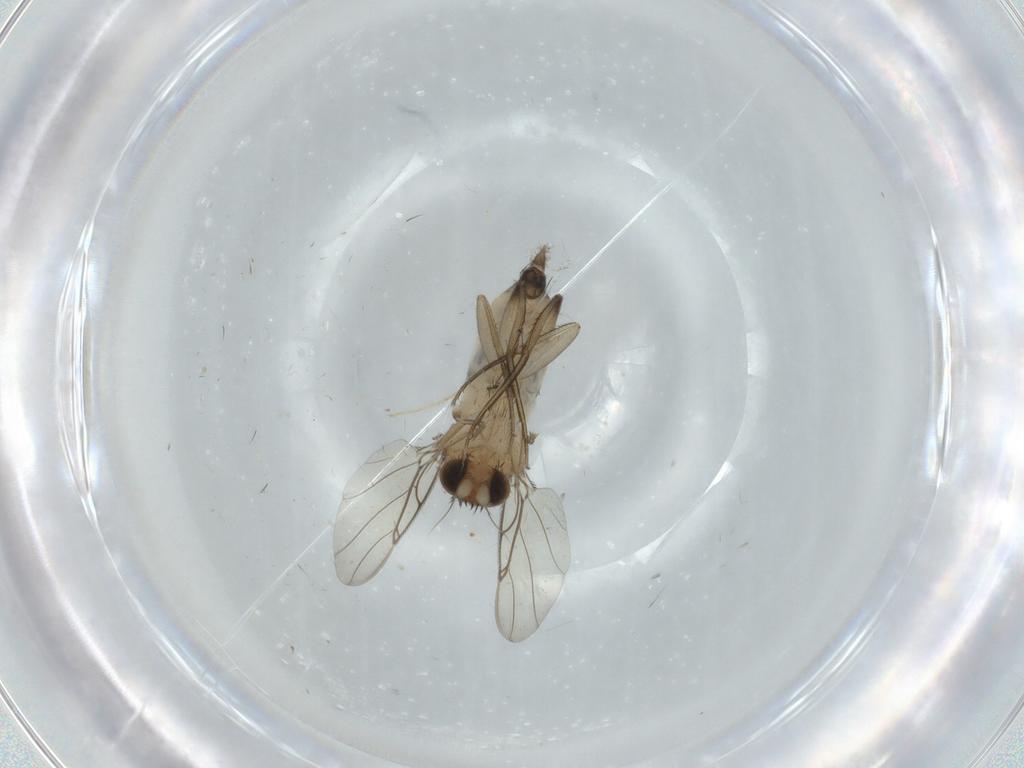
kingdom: Animalia
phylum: Arthropoda
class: Insecta
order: Diptera
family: Phoridae
